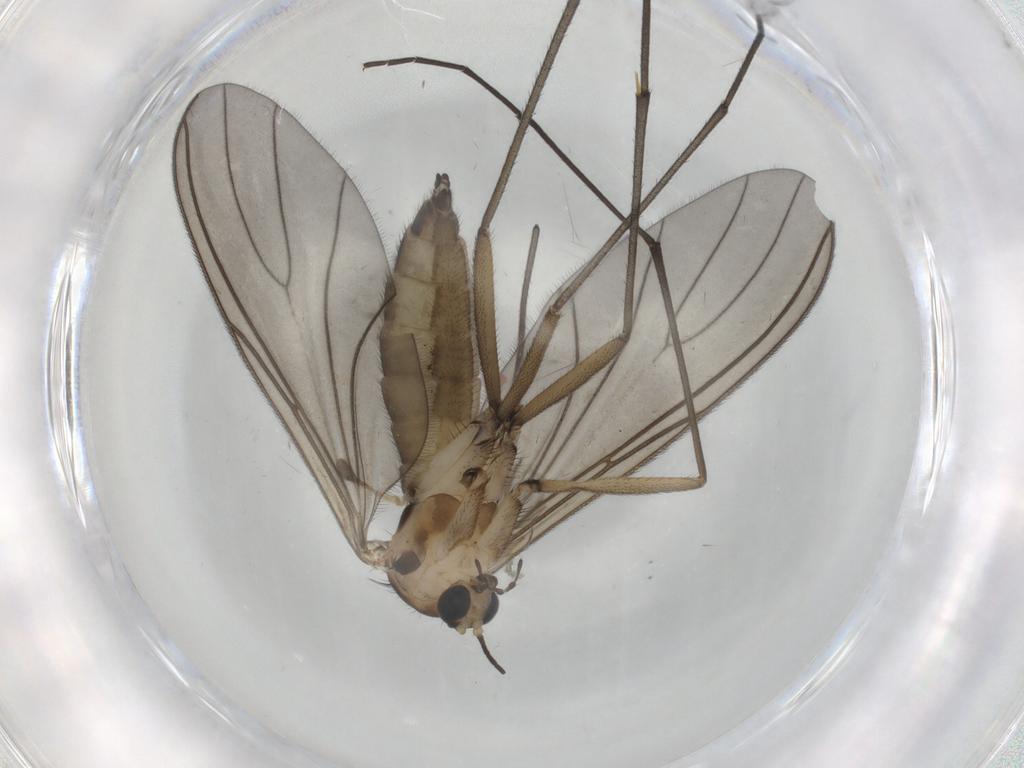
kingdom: Animalia
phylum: Arthropoda
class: Insecta
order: Diptera
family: Sciaridae
